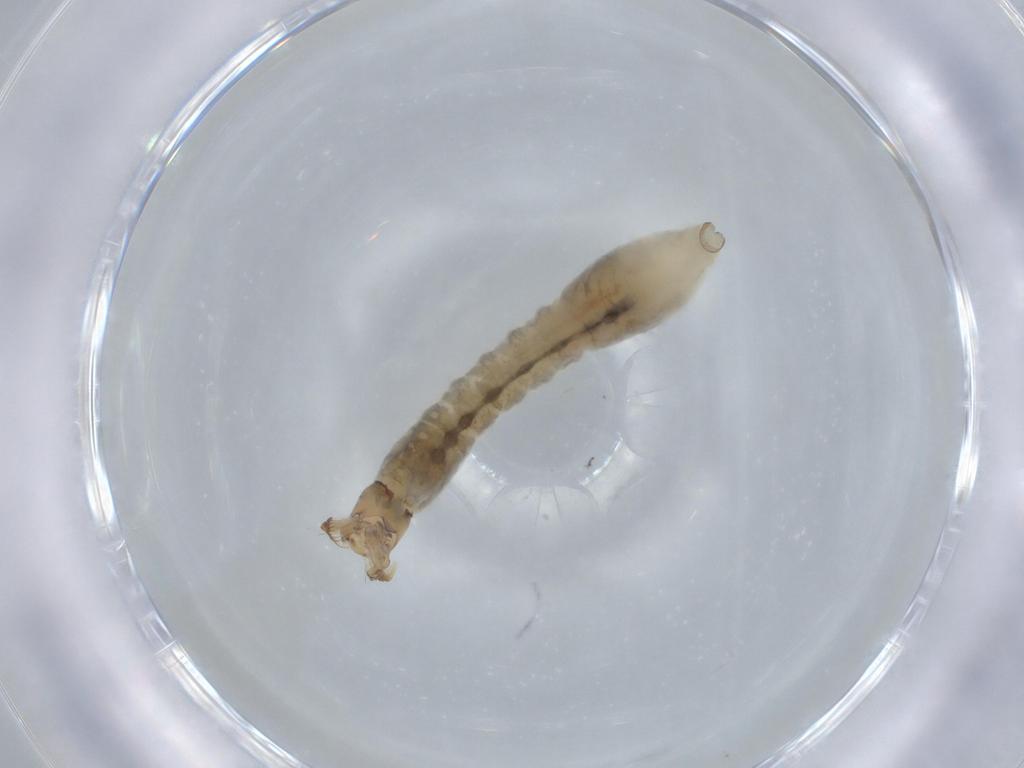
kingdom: Animalia
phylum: Arthropoda
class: Insecta
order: Diptera
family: Simuliidae
